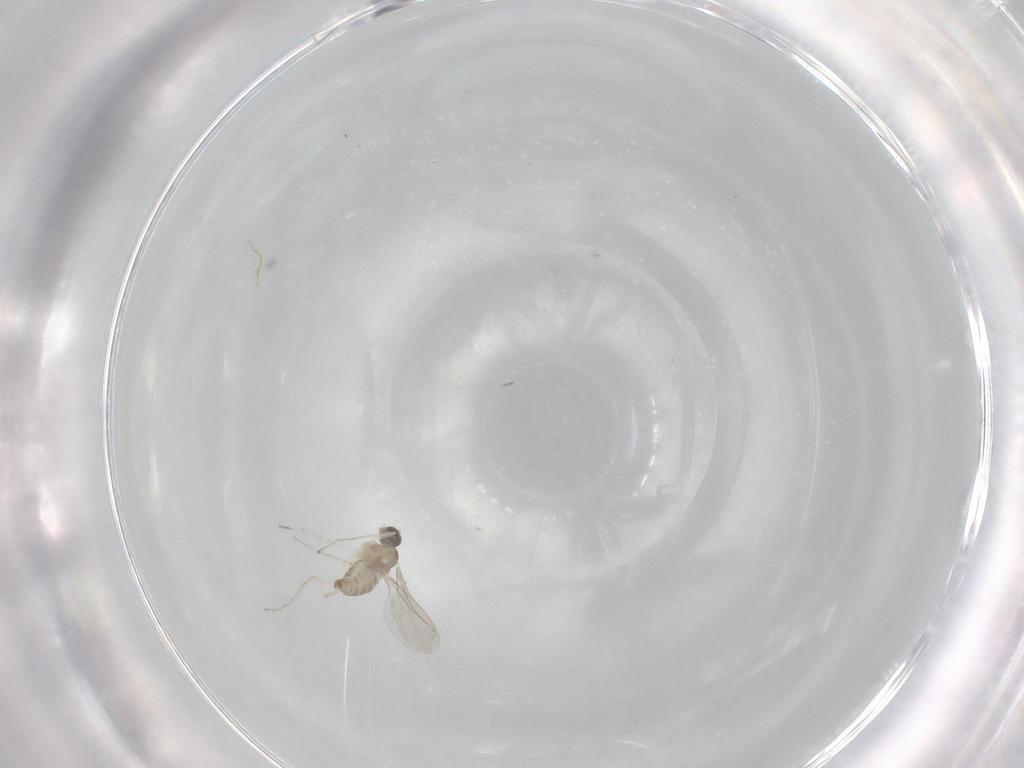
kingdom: Animalia
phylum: Arthropoda
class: Insecta
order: Diptera
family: Cecidomyiidae
